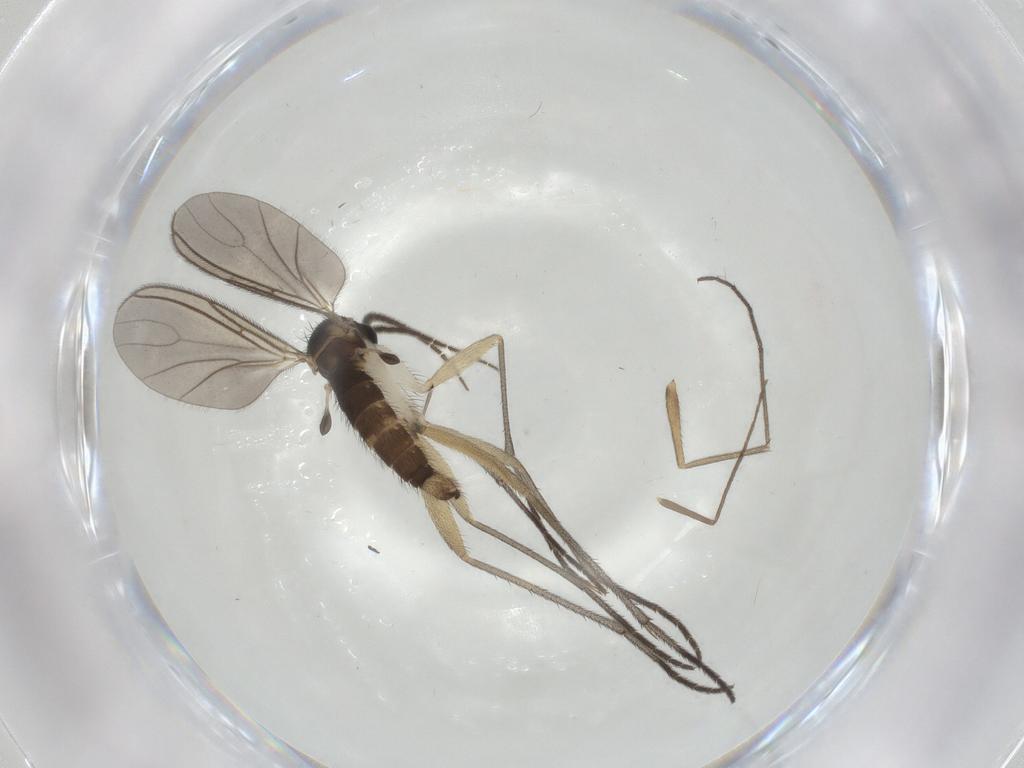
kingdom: Animalia
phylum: Arthropoda
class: Insecta
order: Diptera
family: Sciaridae
